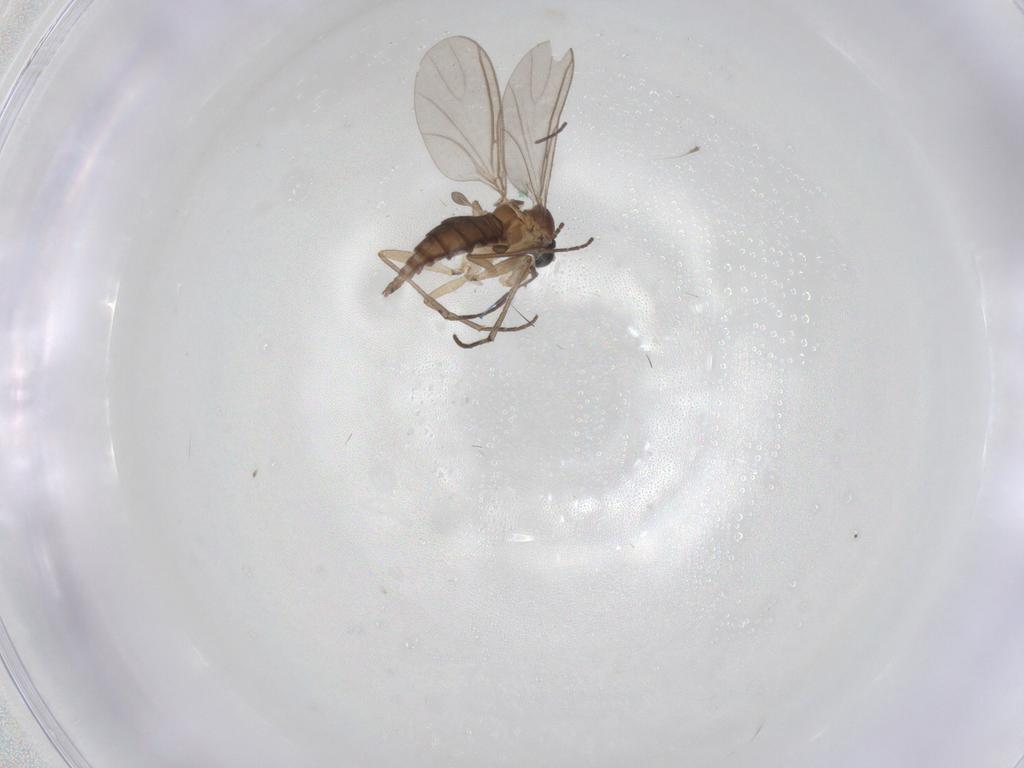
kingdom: Animalia
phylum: Arthropoda
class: Insecta
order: Diptera
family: Sciaridae
